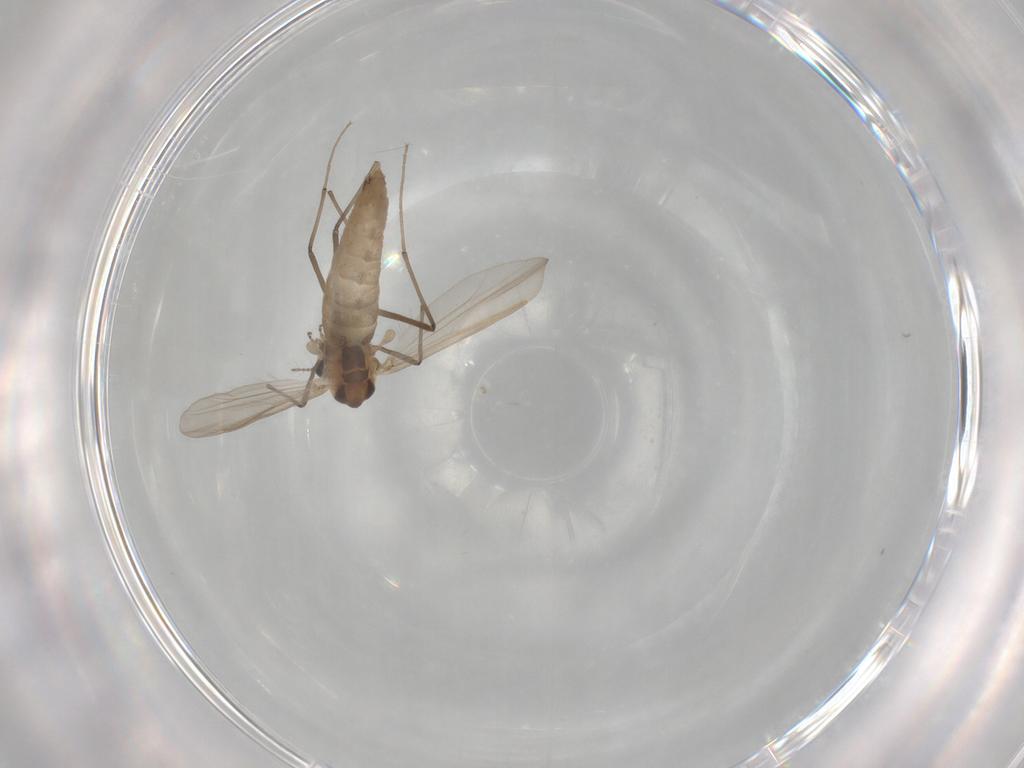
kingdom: Animalia
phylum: Arthropoda
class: Insecta
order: Diptera
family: Chironomidae
